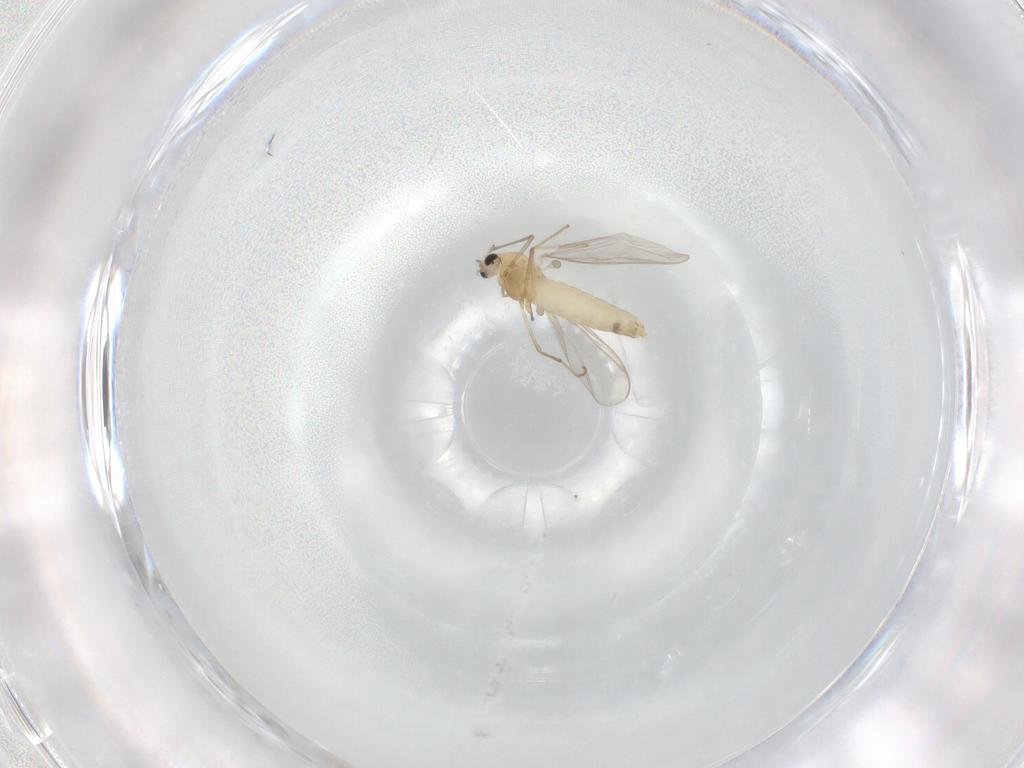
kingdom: Animalia
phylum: Arthropoda
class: Insecta
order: Diptera
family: Chironomidae
